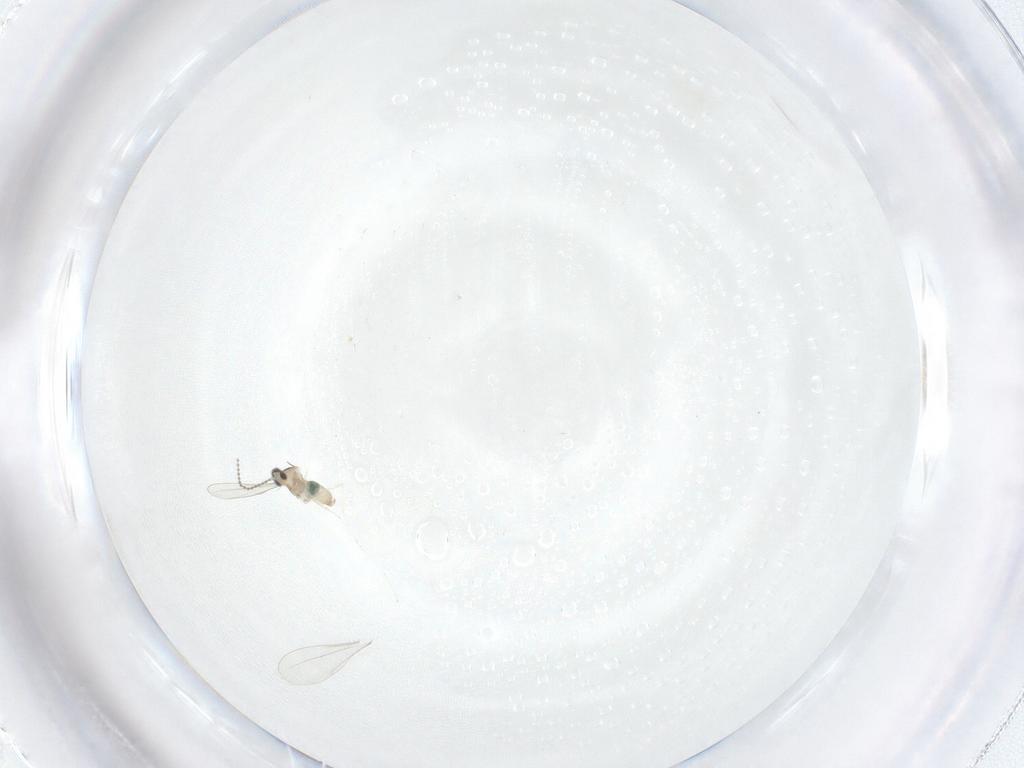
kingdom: Animalia
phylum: Arthropoda
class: Insecta
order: Diptera
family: Cecidomyiidae
